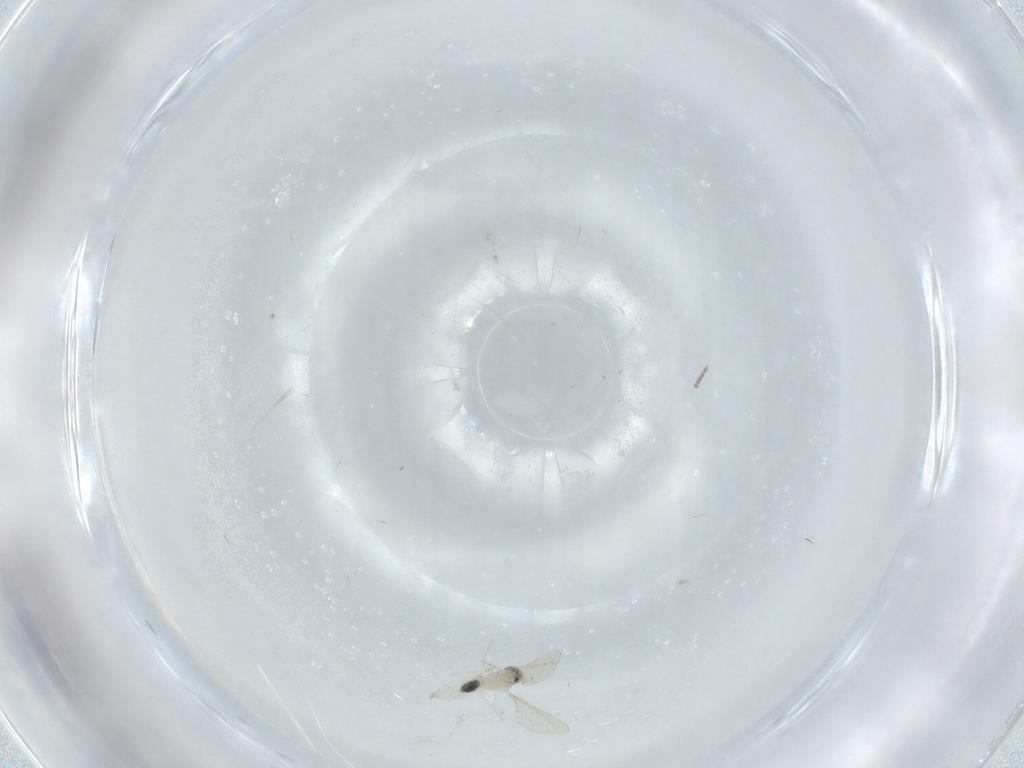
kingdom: Animalia
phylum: Arthropoda
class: Insecta
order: Diptera
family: Psychodidae
